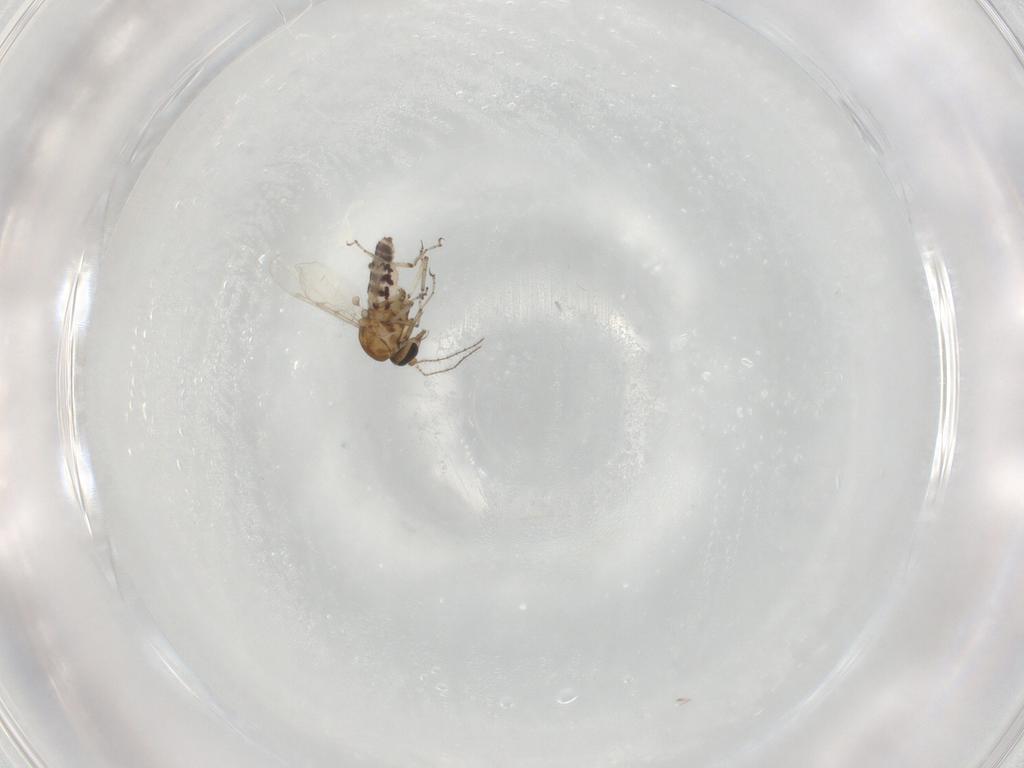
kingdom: Animalia
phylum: Arthropoda
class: Insecta
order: Diptera
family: Ceratopogonidae
